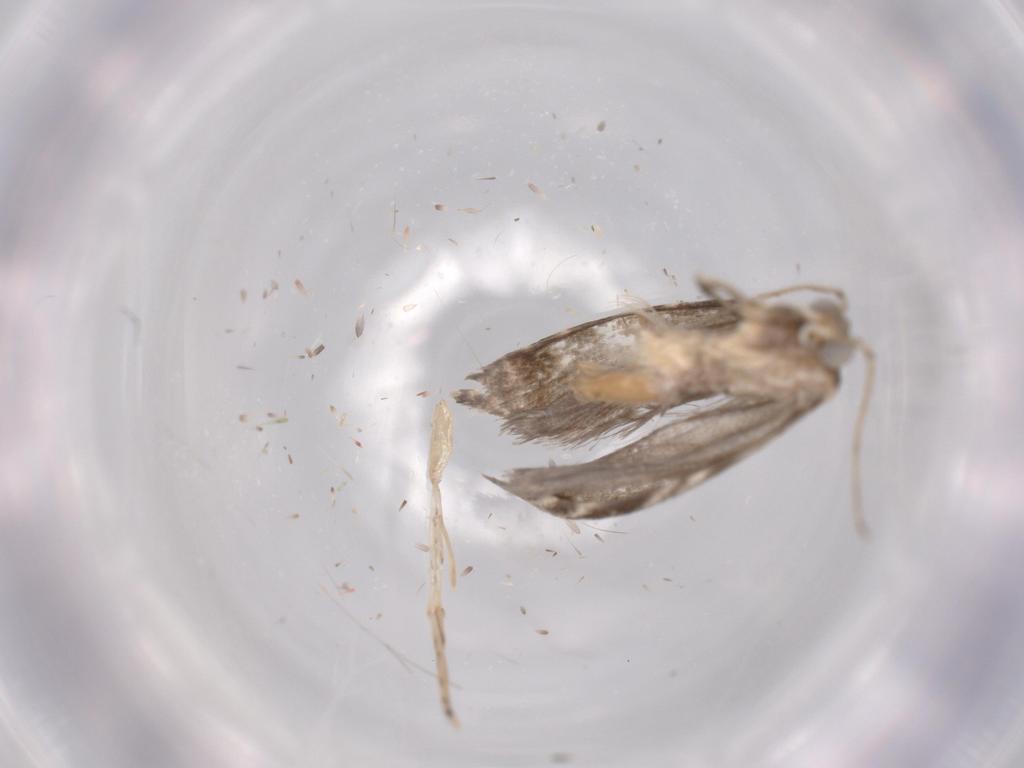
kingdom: Animalia
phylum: Arthropoda
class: Insecta
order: Lepidoptera
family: Tineidae
